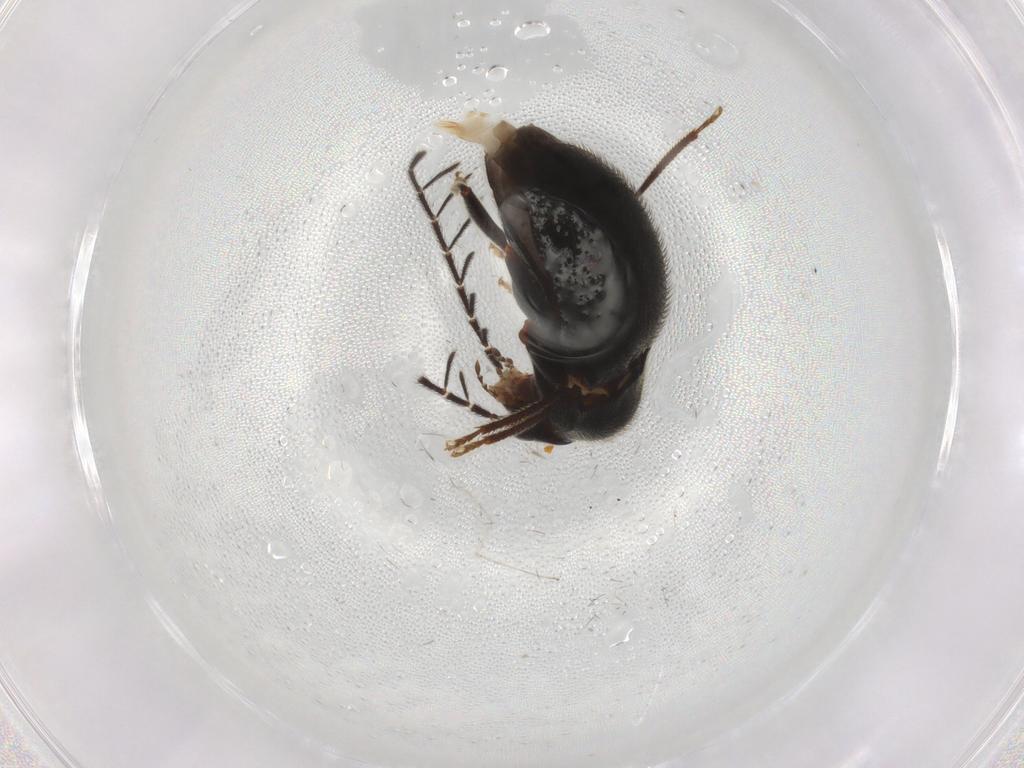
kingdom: Animalia
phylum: Arthropoda
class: Insecta
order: Coleoptera
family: Ptilodactylidae
